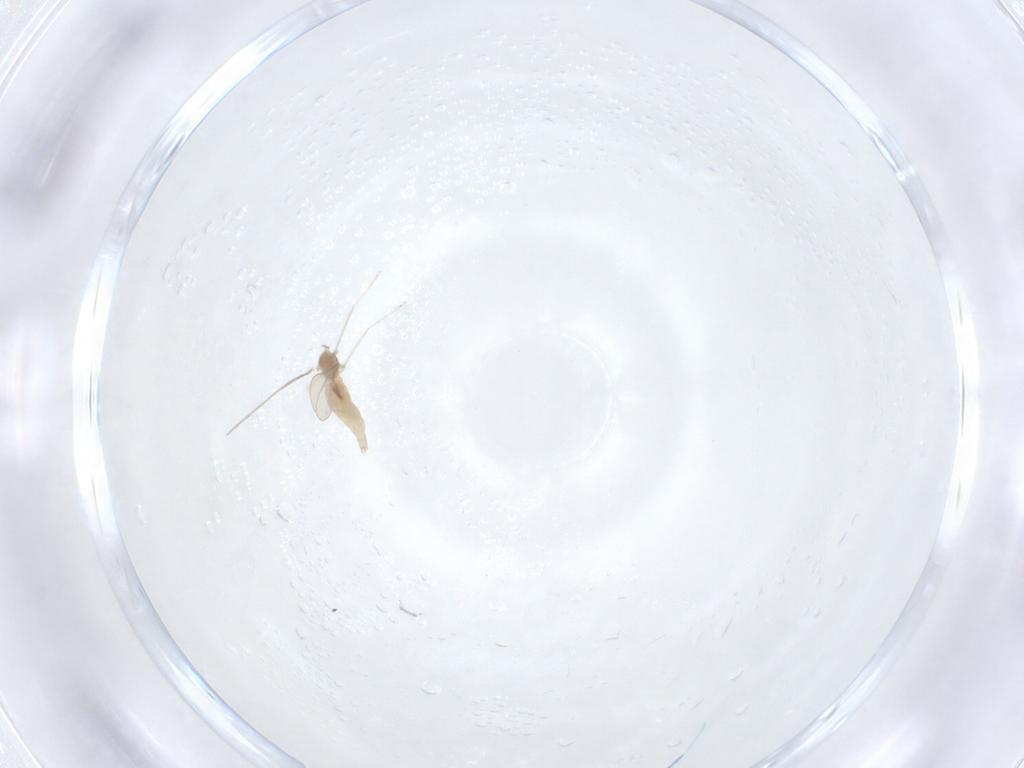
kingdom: Animalia
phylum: Arthropoda
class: Insecta
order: Diptera
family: Cecidomyiidae
